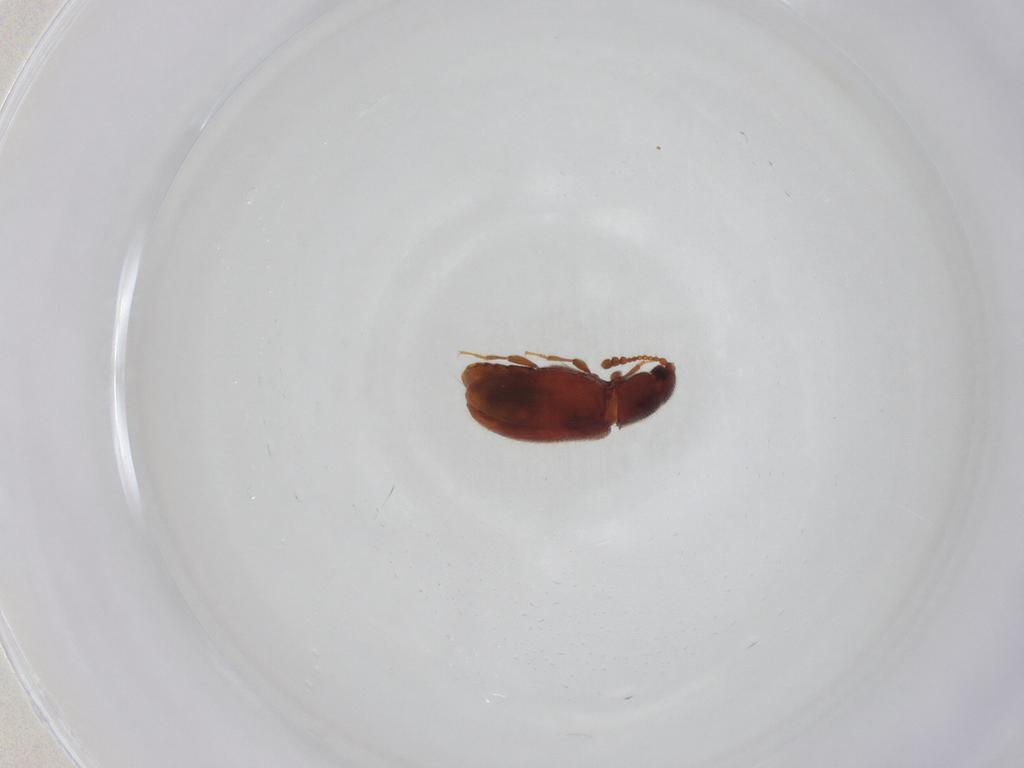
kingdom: Animalia
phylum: Arthropoda
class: Insecta
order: Coleoptera
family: Cryptophagidae
